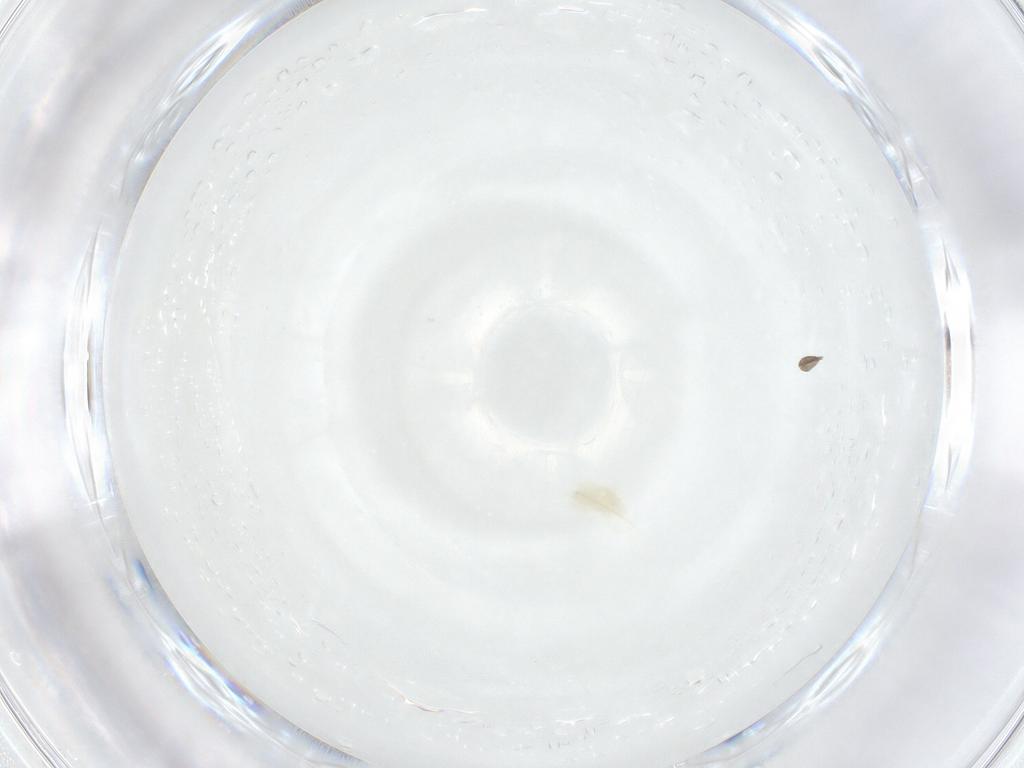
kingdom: Animalia
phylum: Arthropoda
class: Insecta
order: Diptera
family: Sciaridae
